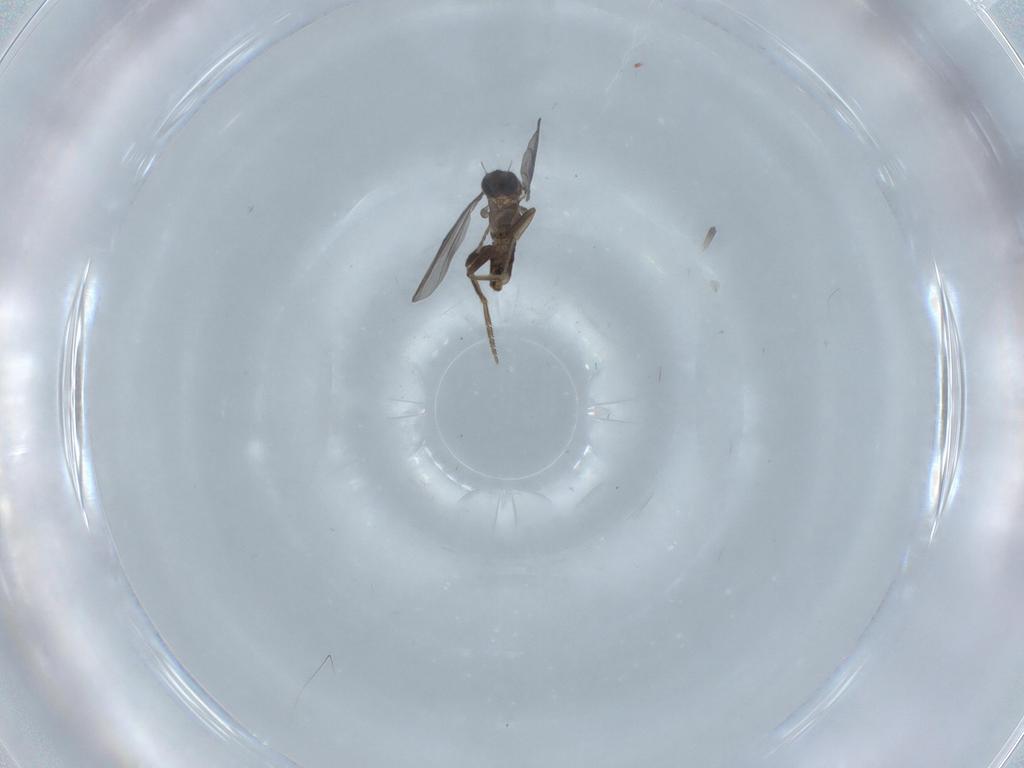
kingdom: Animalia
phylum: Arthropoda
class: Insecta
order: Diptera
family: Phoridae
